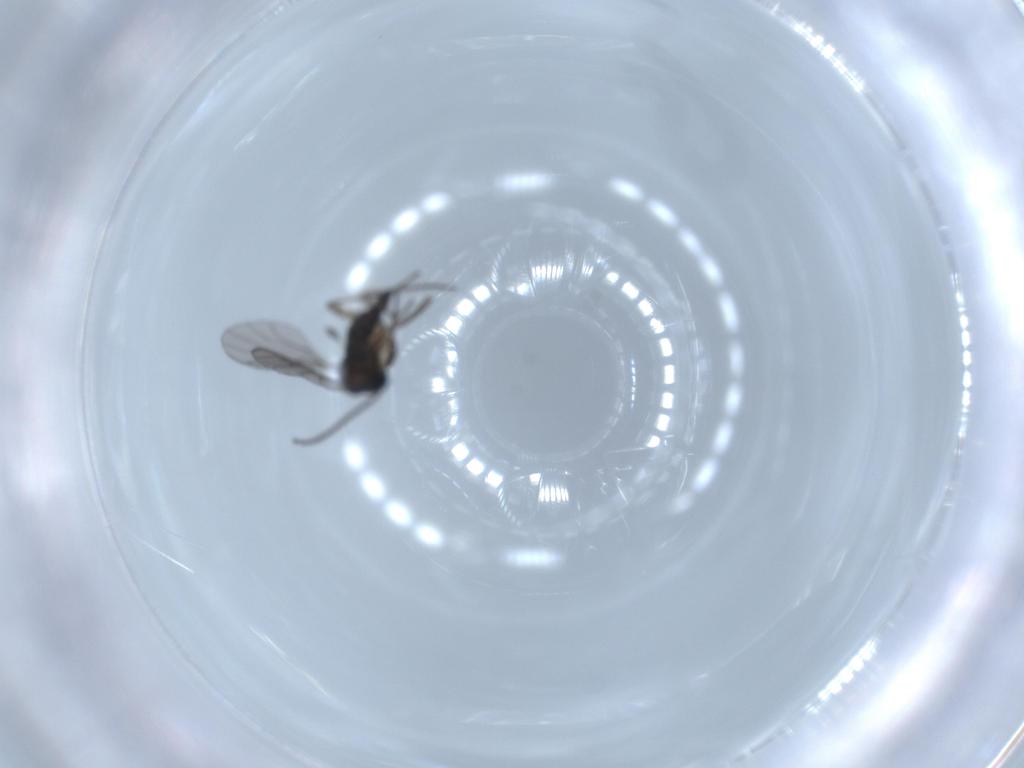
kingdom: Animalia
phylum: Arthropoda
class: Insecta
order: Diptera
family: Sciaridae
